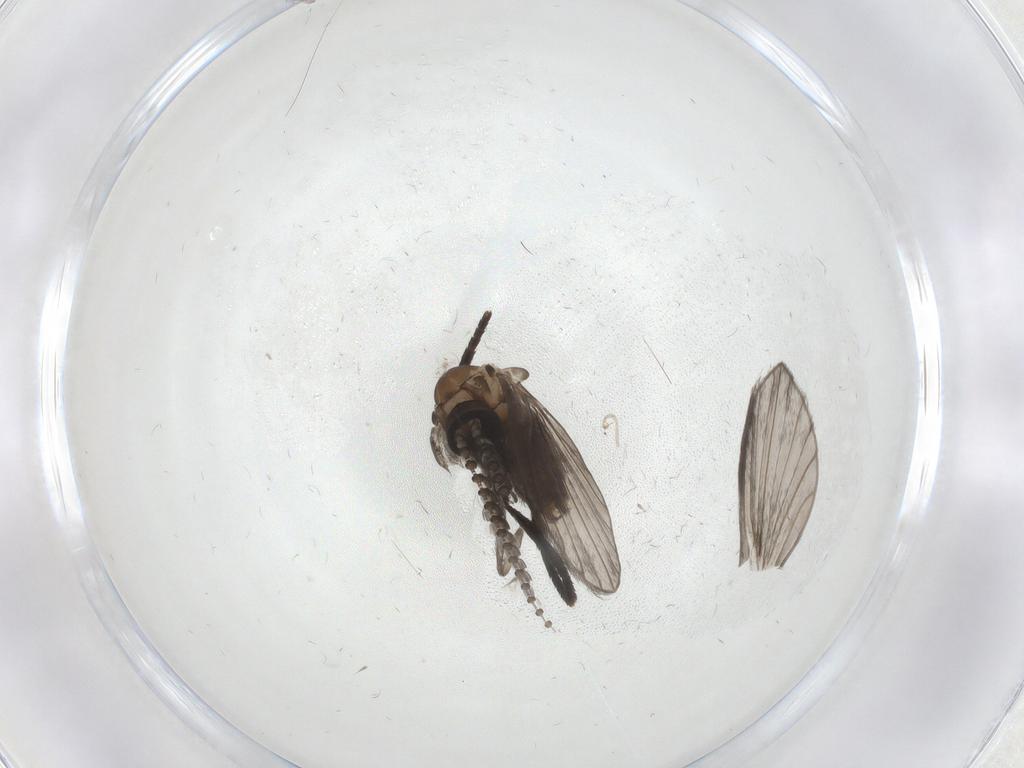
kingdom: Animalia
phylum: Arthropoda
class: Insecta
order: Diptera
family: Psychodidae
